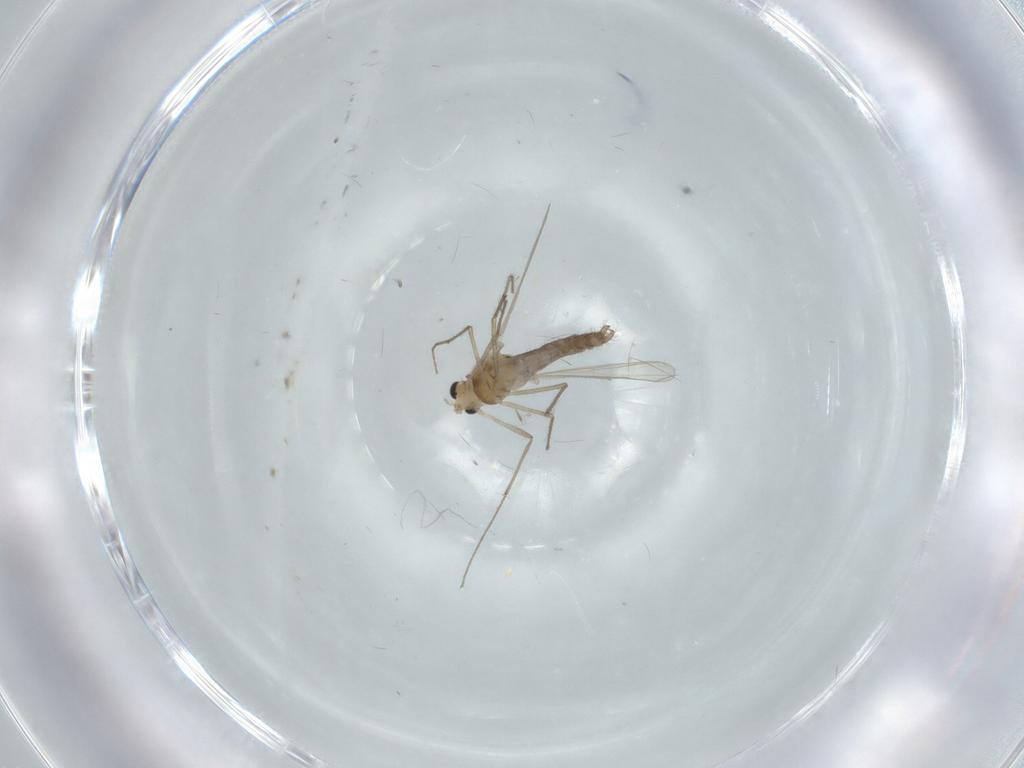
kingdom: Animalia
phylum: Arthropoda
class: Insecta
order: Diptera
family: Chironomidae
